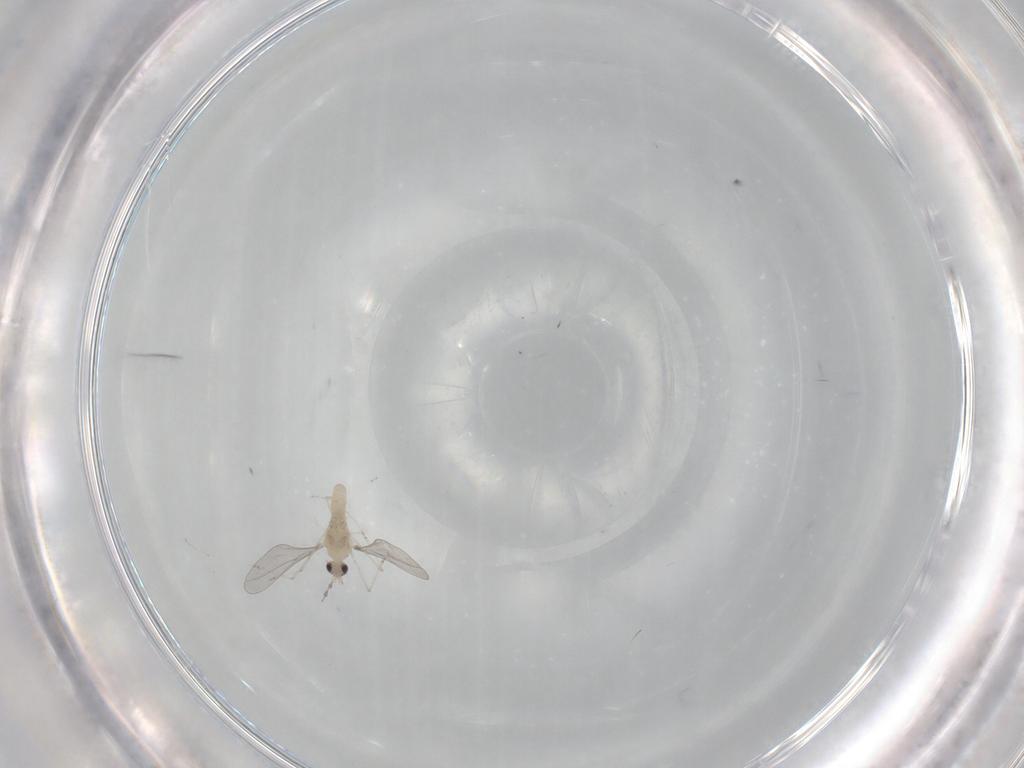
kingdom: Animalia
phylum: Arthropoda
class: Insecta
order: Diptera
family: Cecidomyiidae
